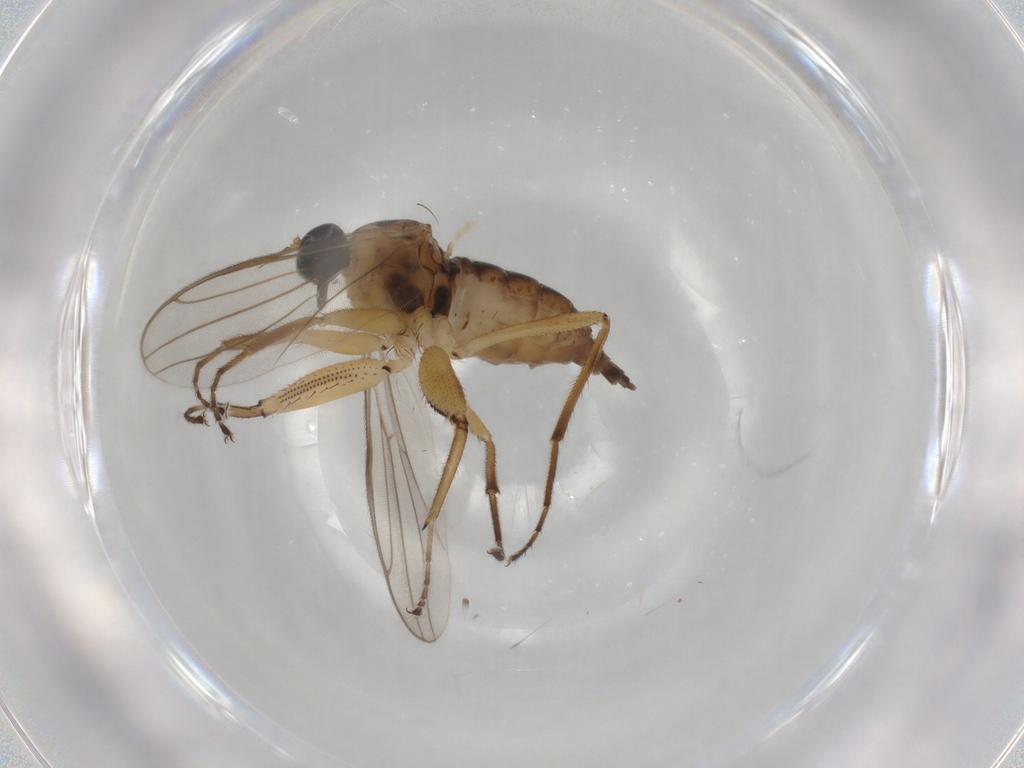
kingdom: Animalia
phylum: Arthropoda
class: Insecta
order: Diptera
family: Hybotidae
